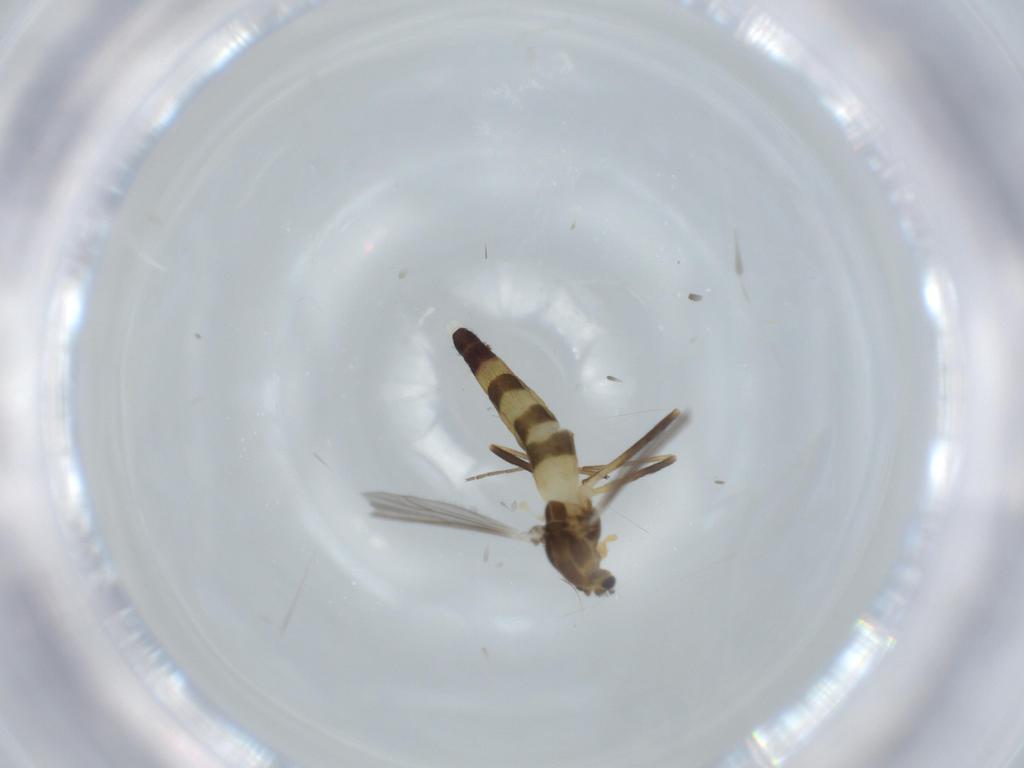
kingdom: Animalia
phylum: Arthropoda
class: Insecta
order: Diptera
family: Chironomidae
